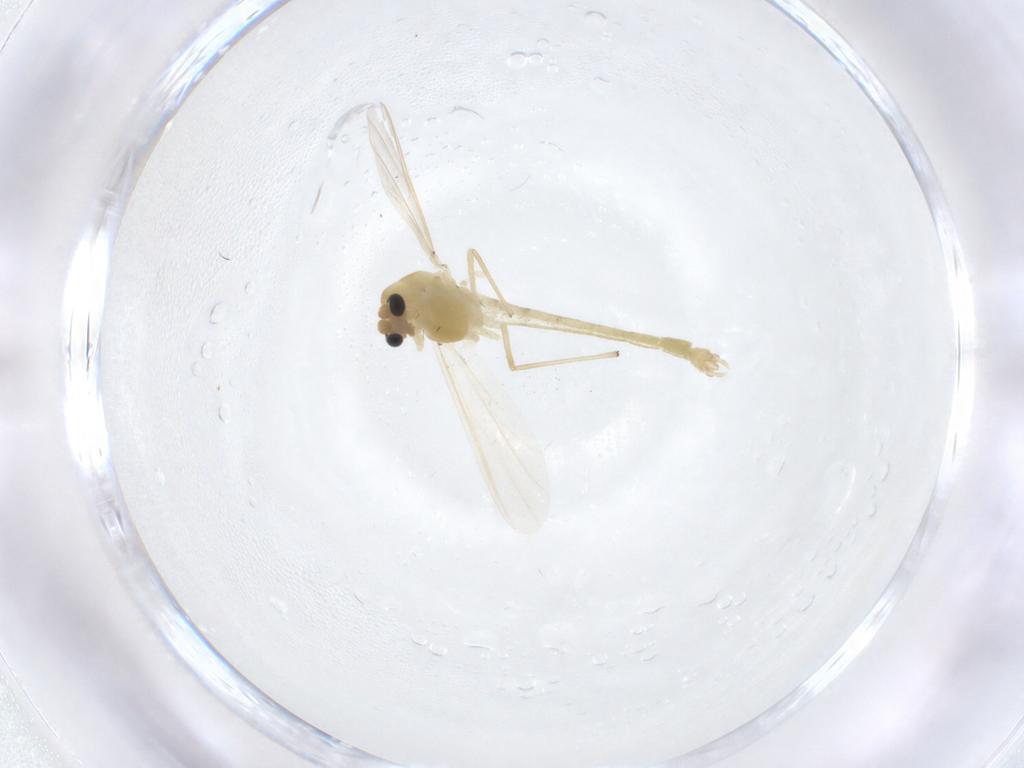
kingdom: Animalia
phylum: Arthropoda
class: Insecta
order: Diptera
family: Chironomidae
